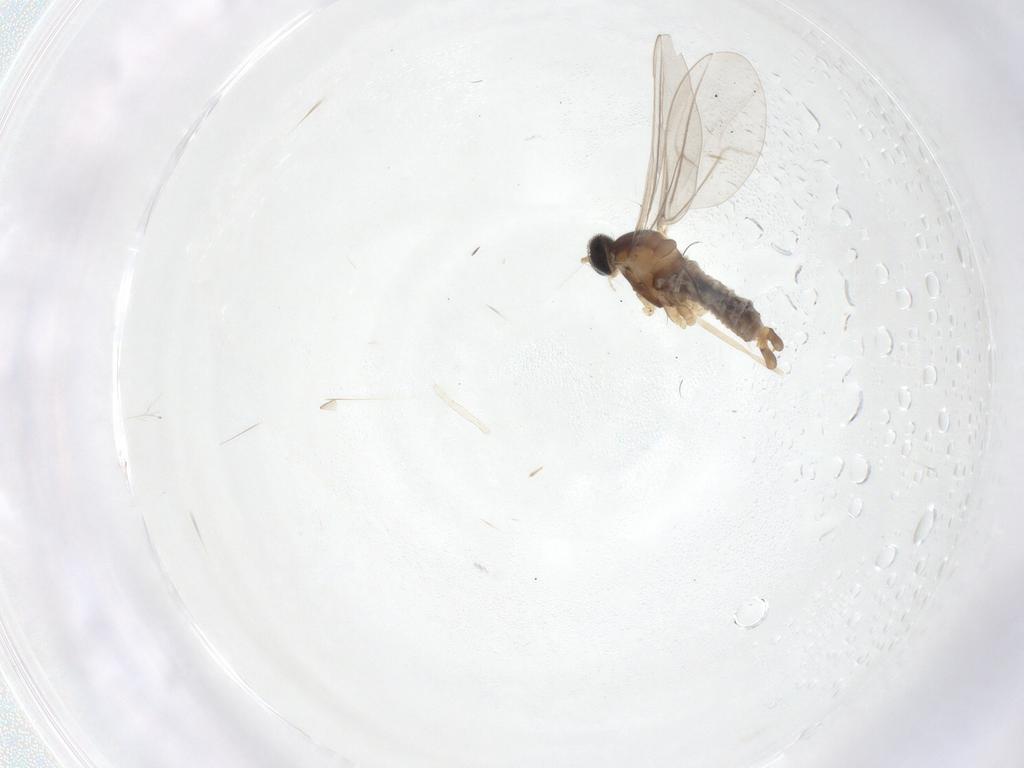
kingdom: Animalia
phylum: Arthropoda
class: Insecta
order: Diptera
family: Cecidomyiidae
